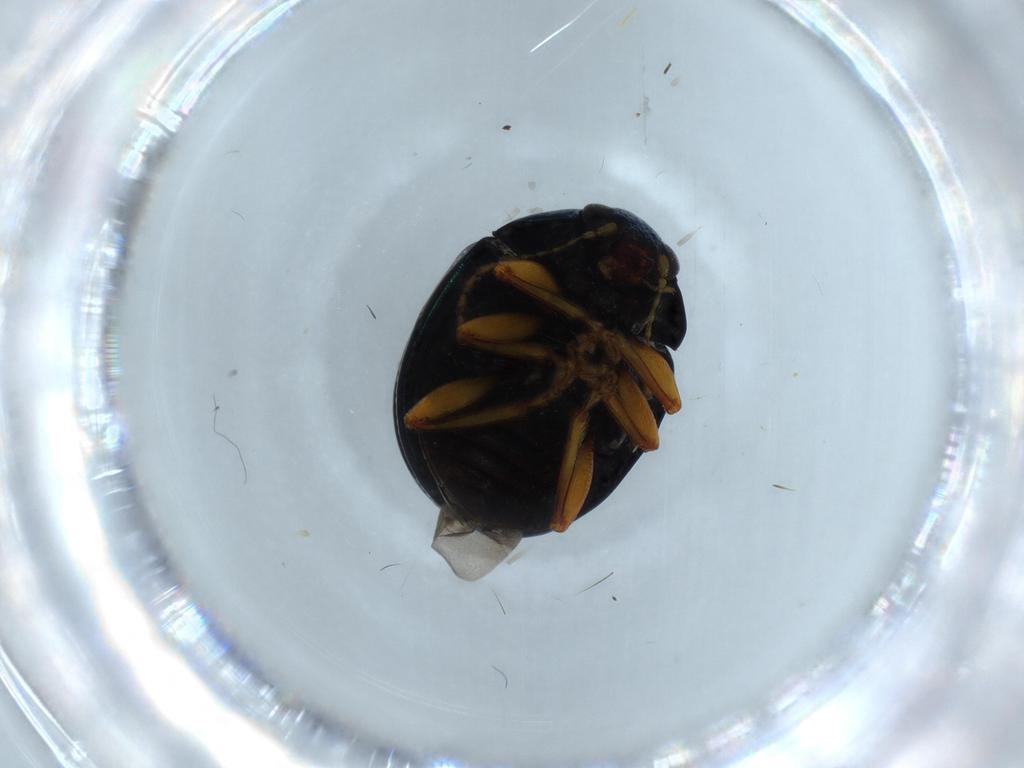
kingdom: Animalia
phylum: Arthropoda
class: Insecta
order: Coleoptera
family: Chrysomelidae
